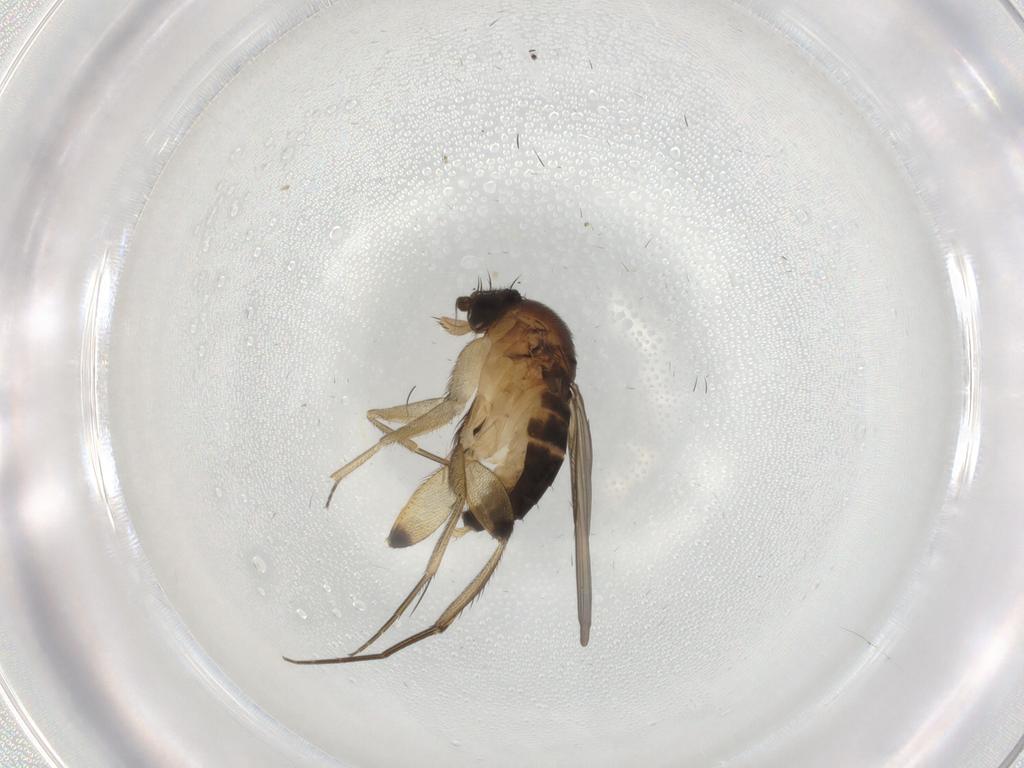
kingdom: Animalia
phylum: Arthropoda
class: Insecta
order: Diptera
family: Phoridae
